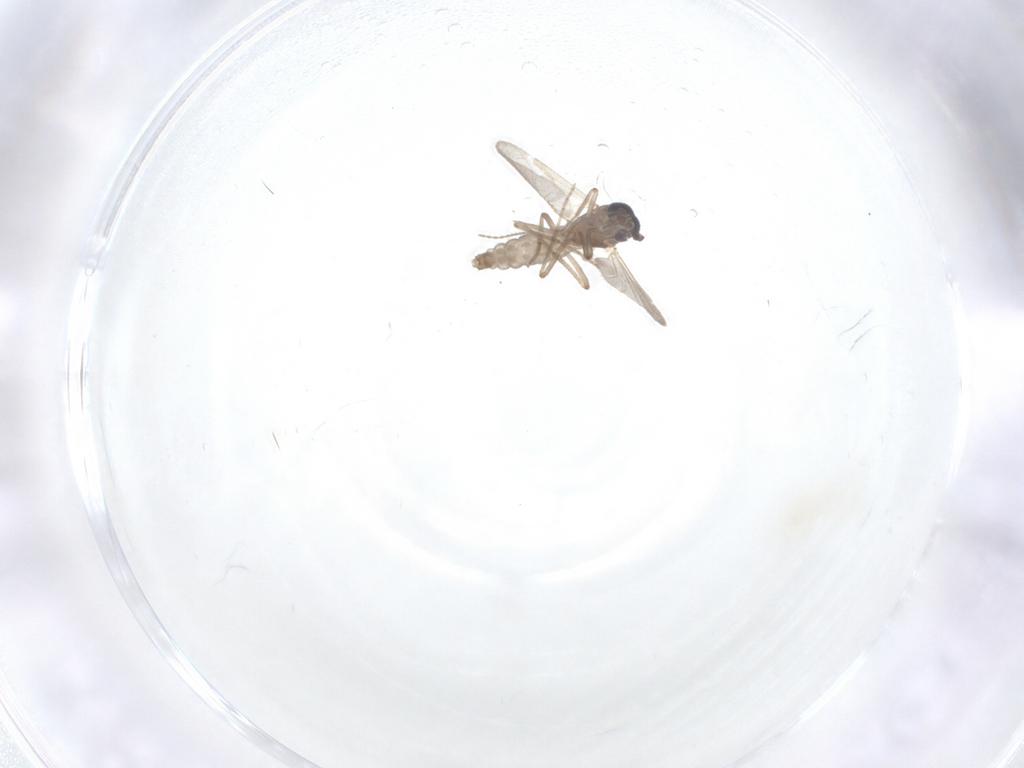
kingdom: Animalia
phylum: Arthropoda
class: Insecta
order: Diptera
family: Ceratopogonidae
